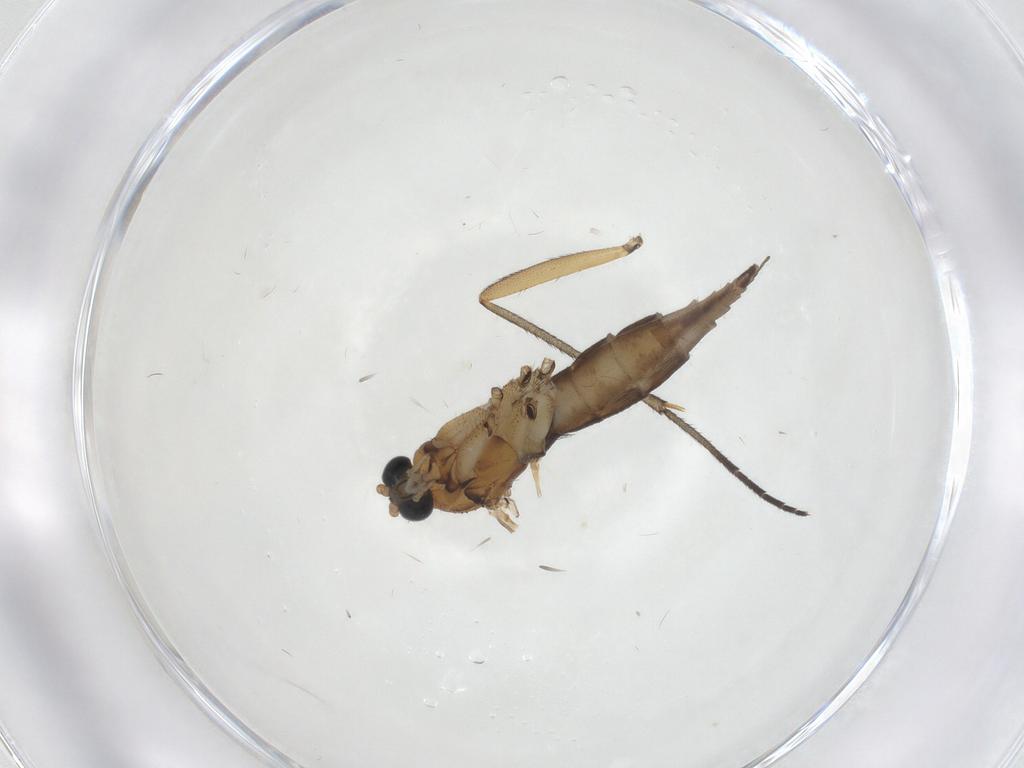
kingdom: Animalia
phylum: Arthropoda
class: Insecta
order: Diptera
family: Sciaridae
